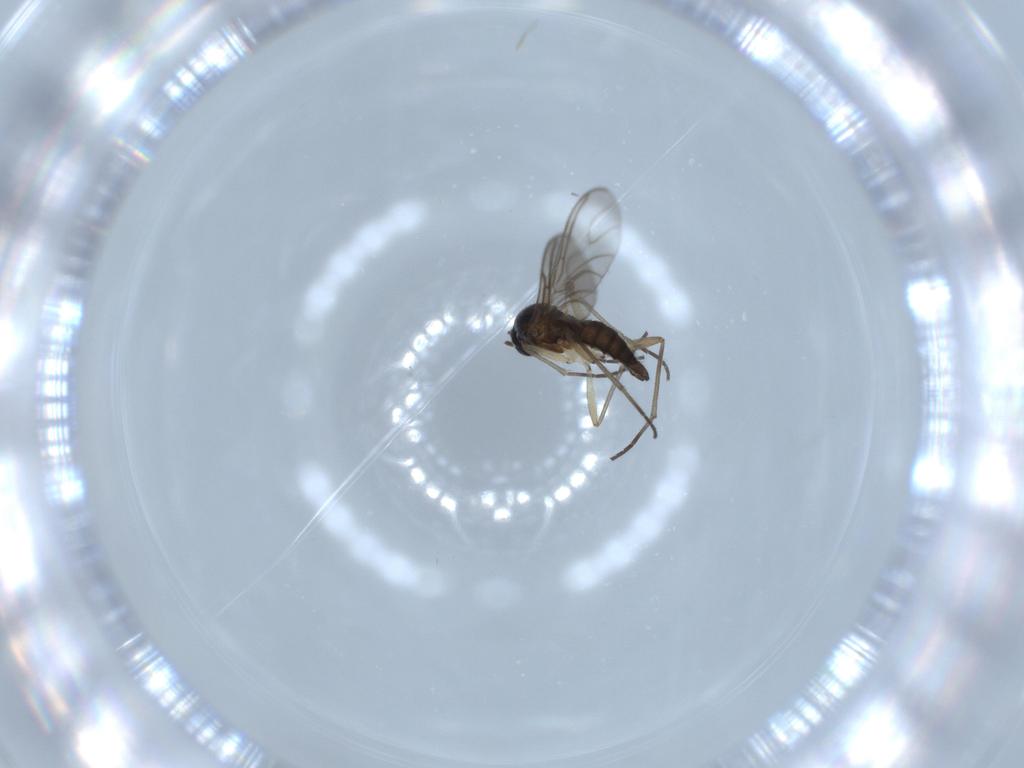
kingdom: Animalia
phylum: Arthropoda
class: Insecta
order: Diptera
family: Sciaridae
